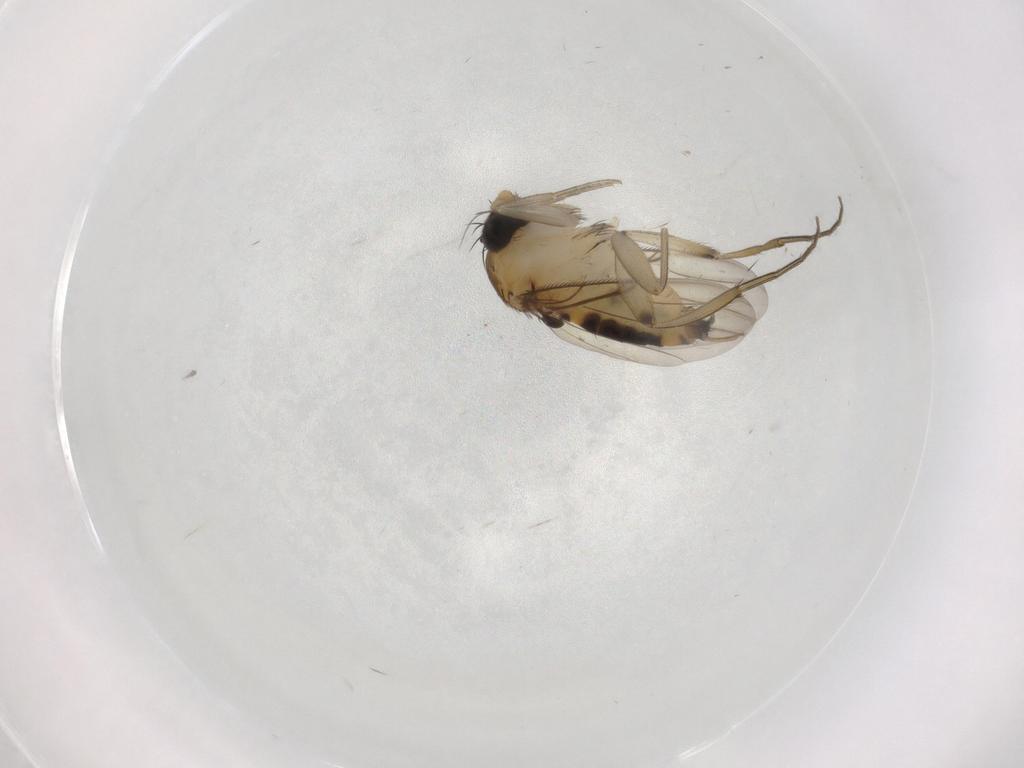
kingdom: Animalia
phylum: Arthropoda
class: Insecta
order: Diptera
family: Phoridae
